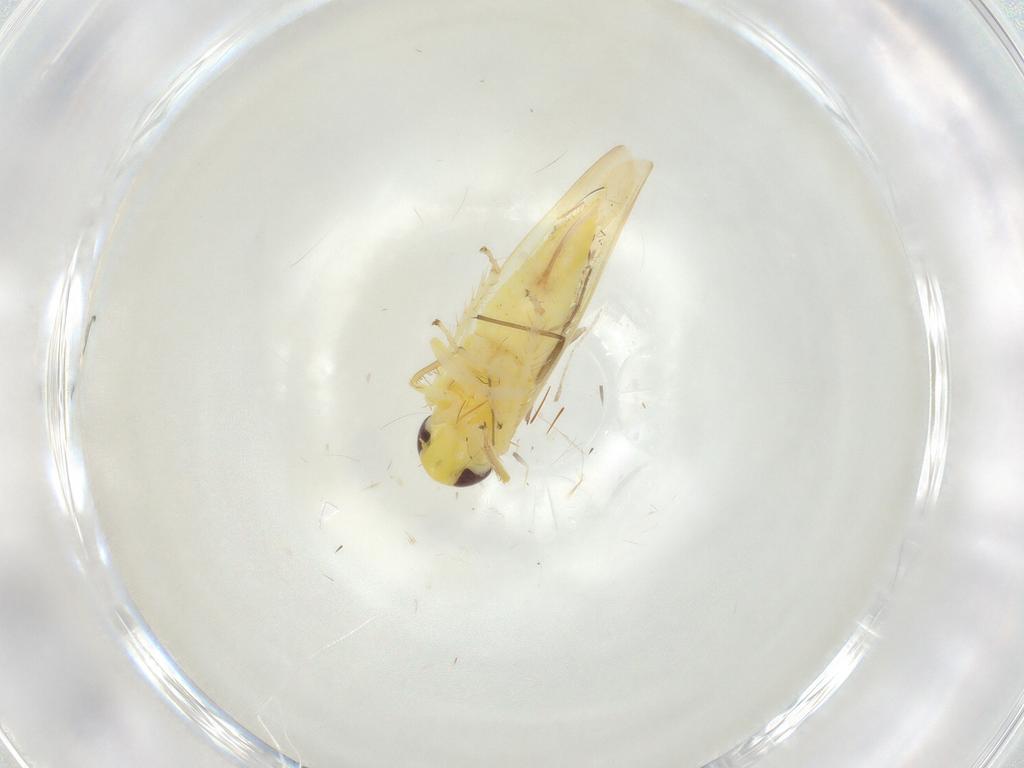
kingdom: Animalia
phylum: Arthropoda
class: Insecta
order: Hemiptera
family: Cicadellidae
